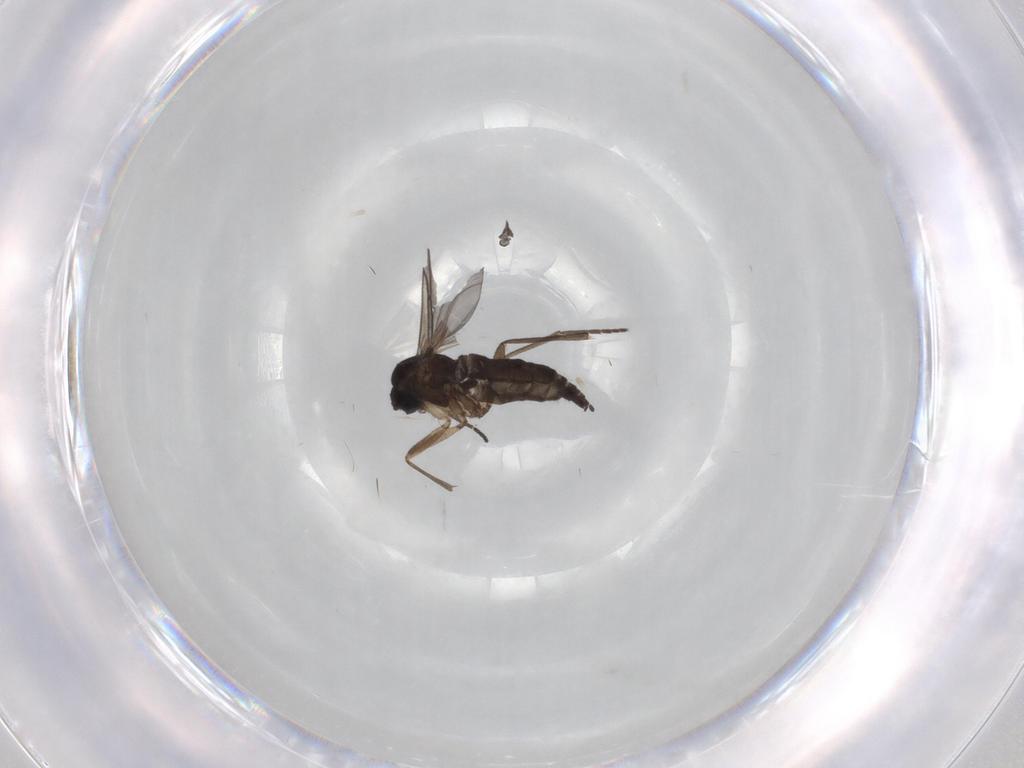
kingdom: Animalia
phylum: Arthropoda
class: Insecta
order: Diptera
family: Sciaridae
